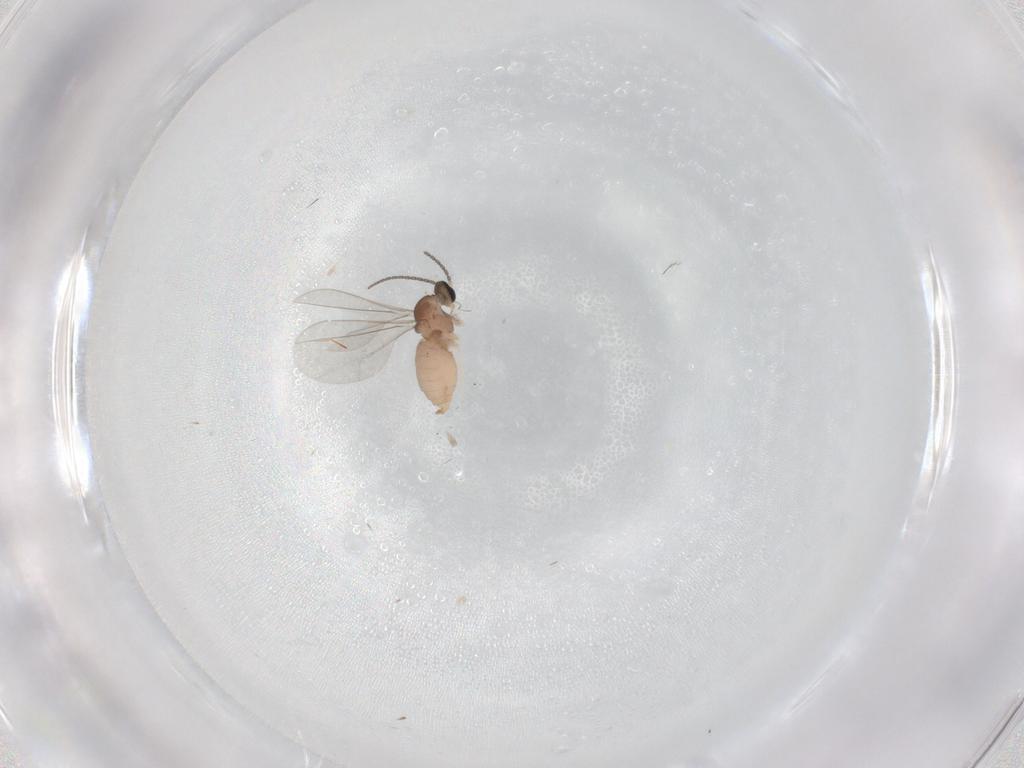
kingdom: Animalia
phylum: Arthropoda
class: Insecta
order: Diptera
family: Cecidomyiidae
